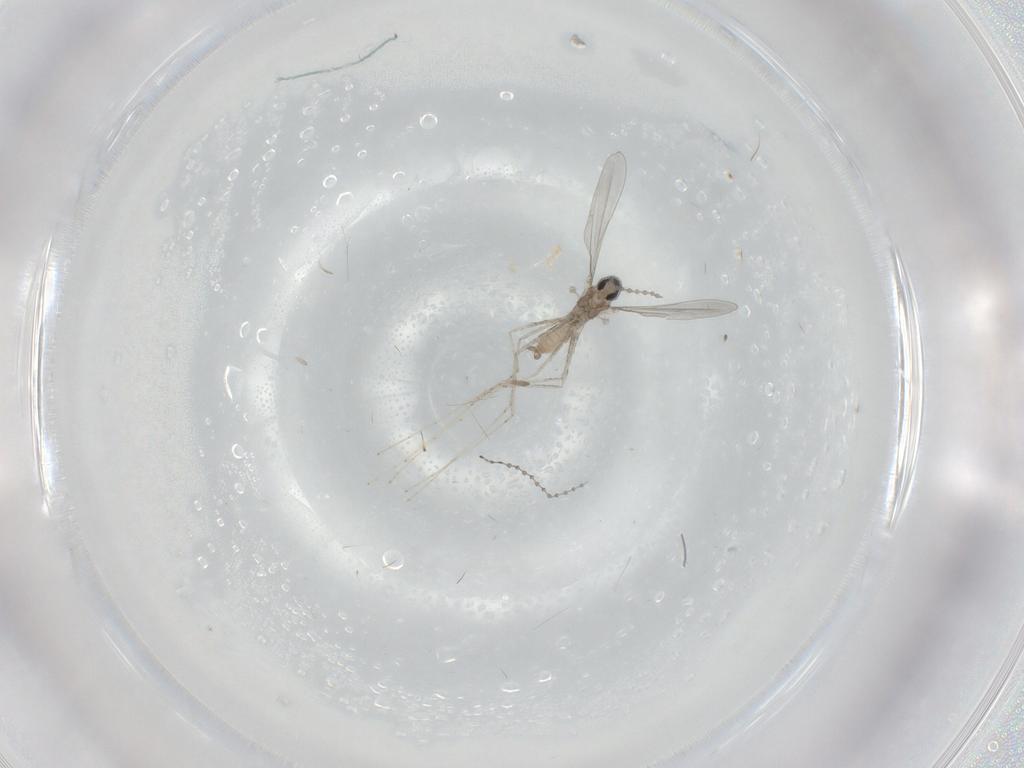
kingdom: Animalia
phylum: Arthropoda
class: Insecta
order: Diptera
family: Cecidomyiidae
